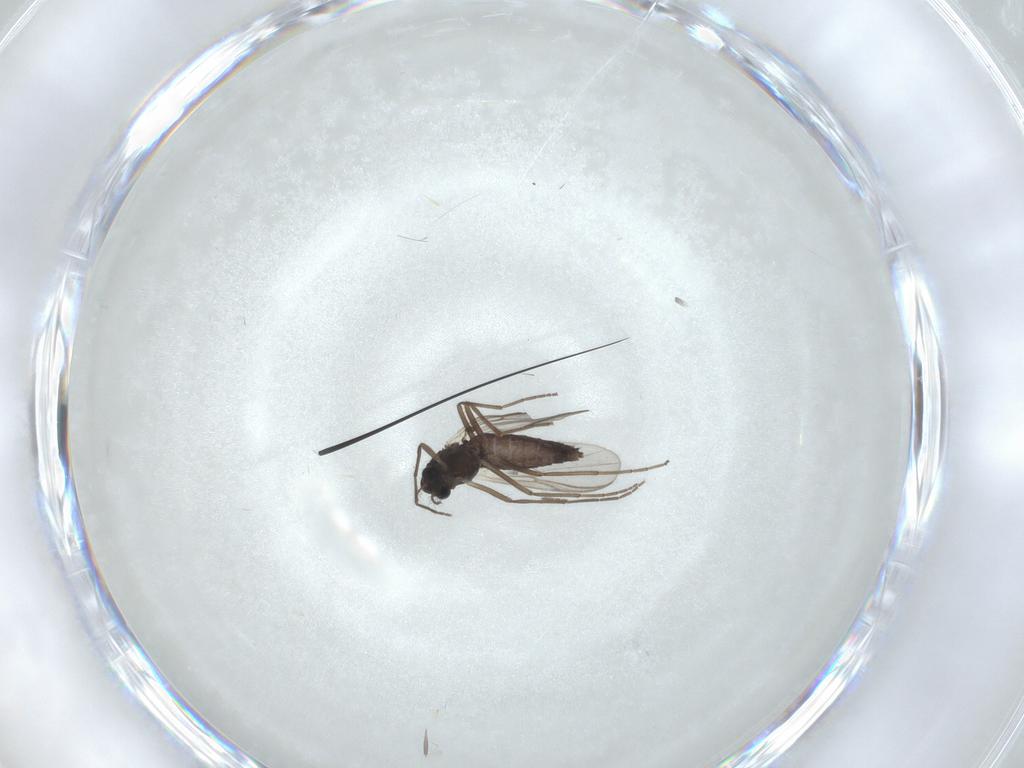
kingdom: Animalia
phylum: Arthropoda
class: Insecta
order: Diptera
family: Chironomidae
